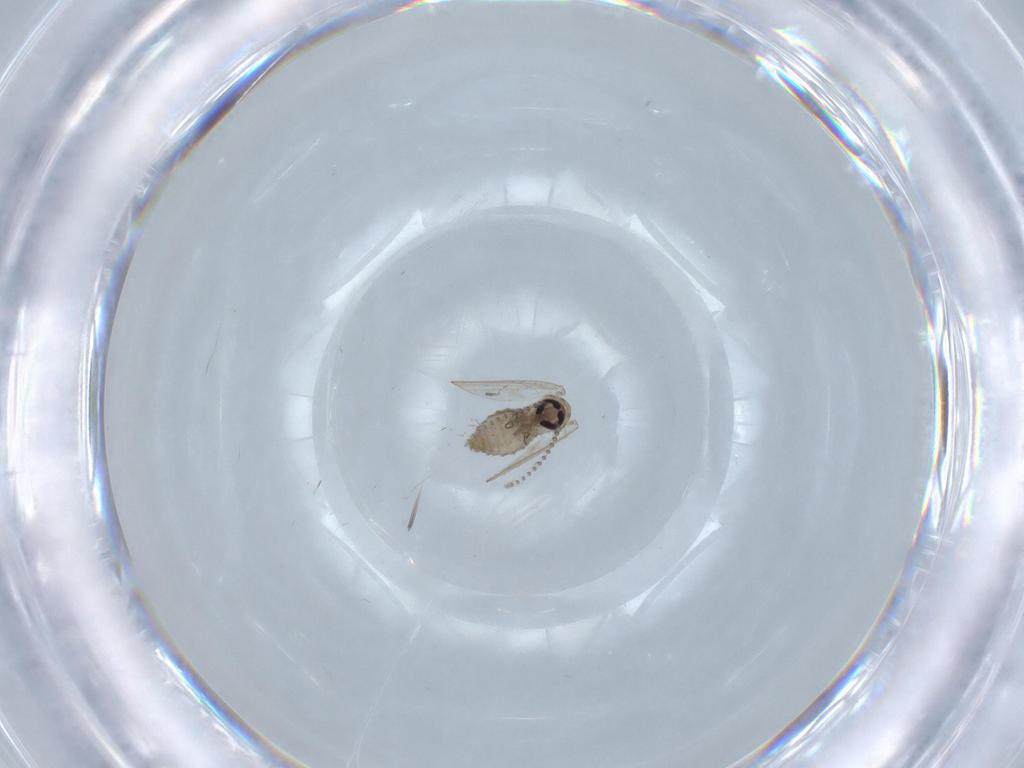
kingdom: Animalia
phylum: Arthropoda
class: Insecta
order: Diptera
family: Psychodidae
